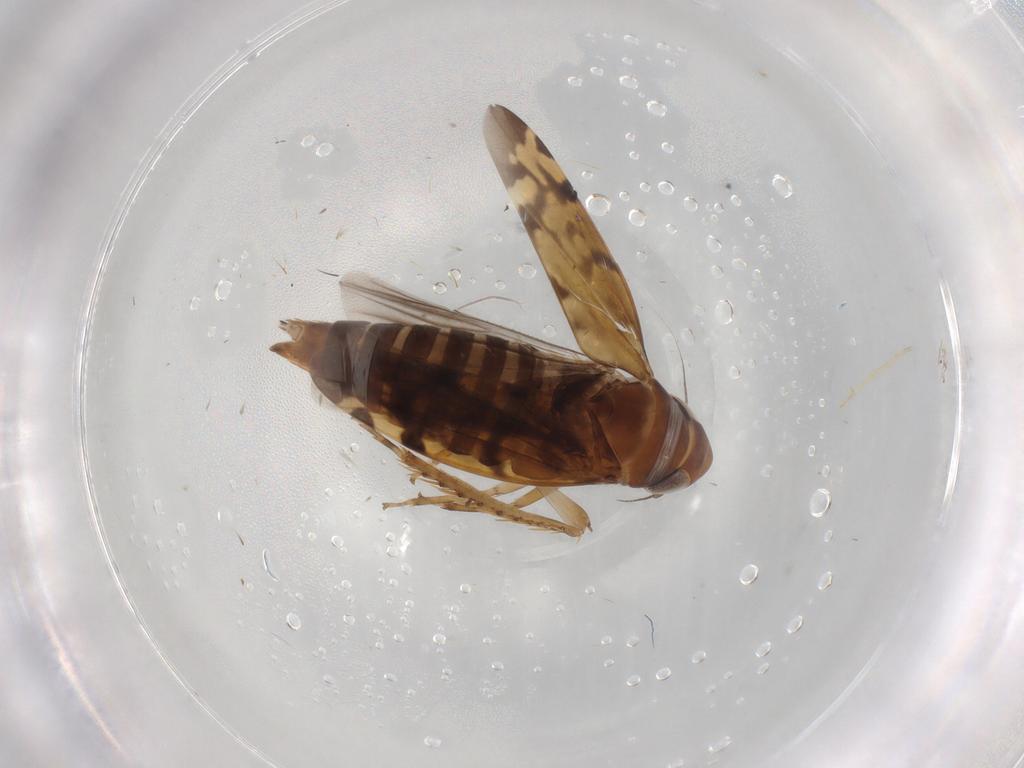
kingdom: Animalia
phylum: Arthropoda
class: Insecta
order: Hemiptera
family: Cicadellidae
